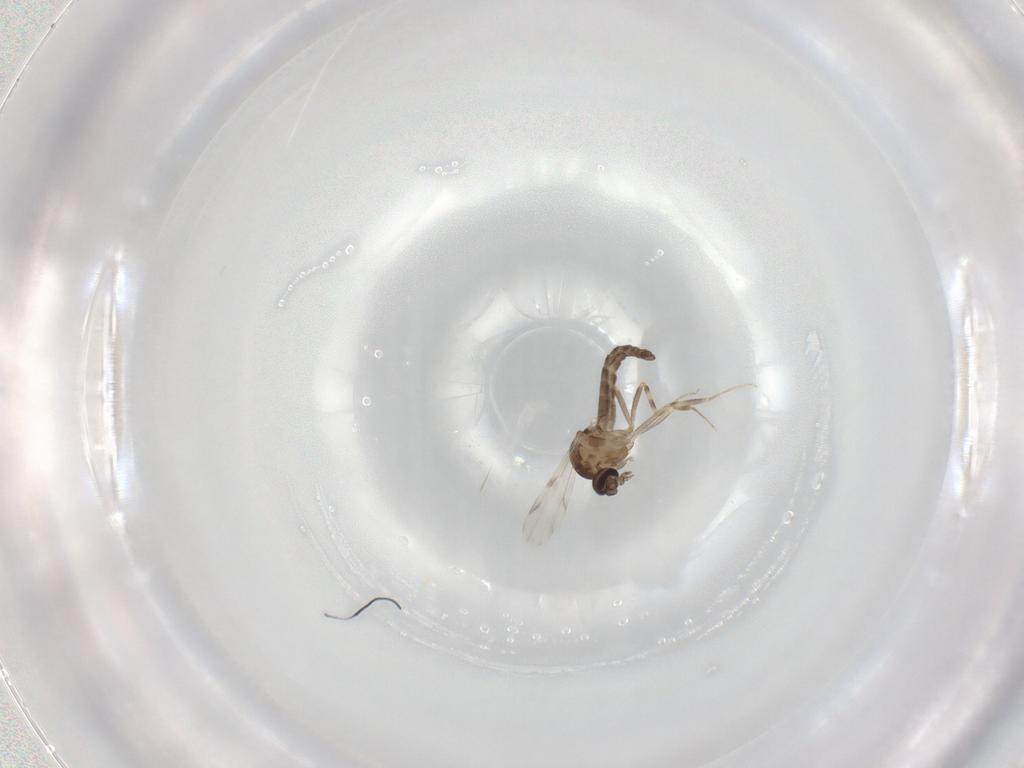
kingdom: Animalia
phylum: Arthropoda
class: Insecta
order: Diptera
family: Ceratopogonidae
